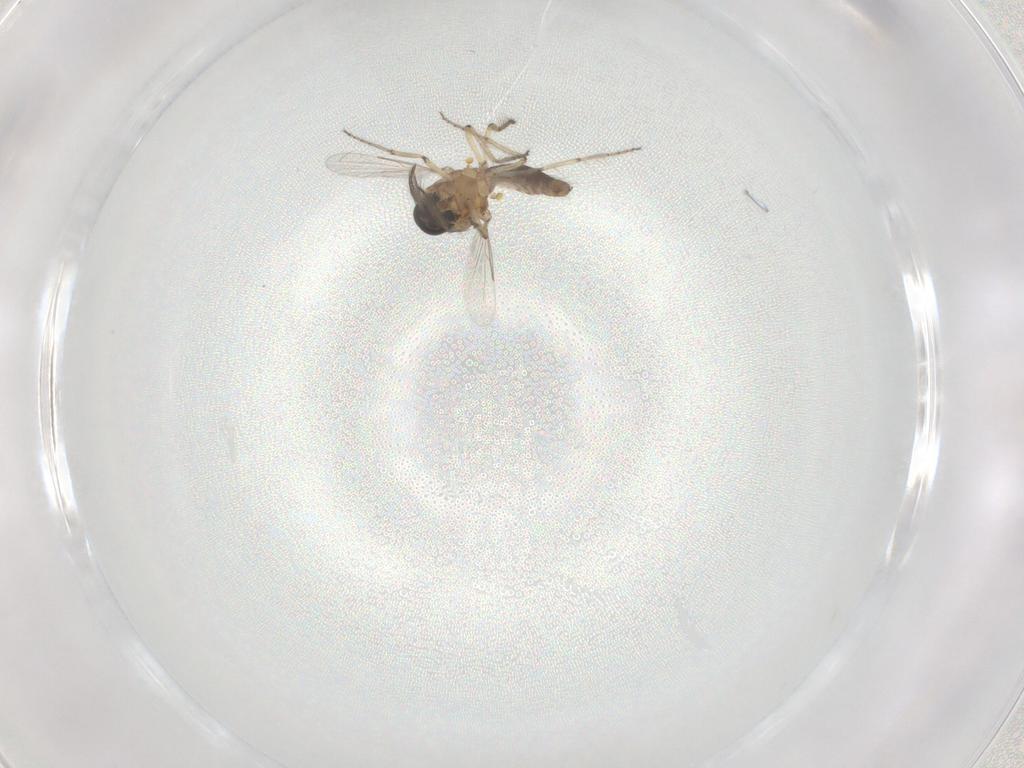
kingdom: Animalia
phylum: Arthropoda
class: Insecta
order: Diptera
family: Ceratopogonidae
